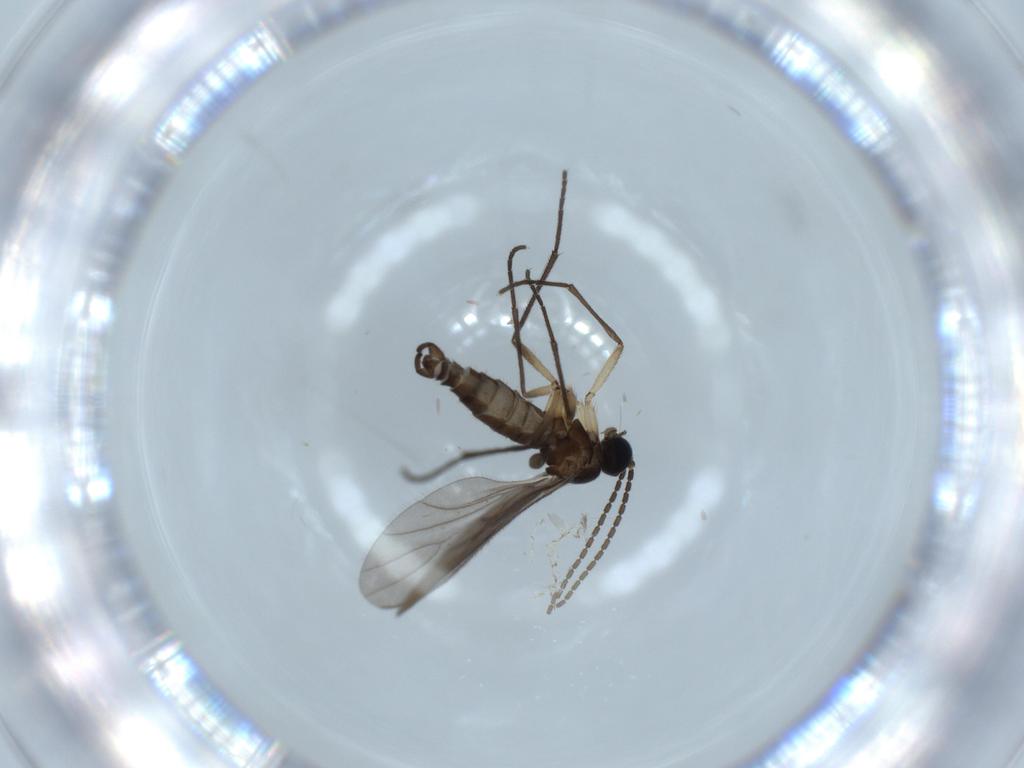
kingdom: Animalia
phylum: Arthropoda
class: Insecta
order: Diptera
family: Sciaridae
